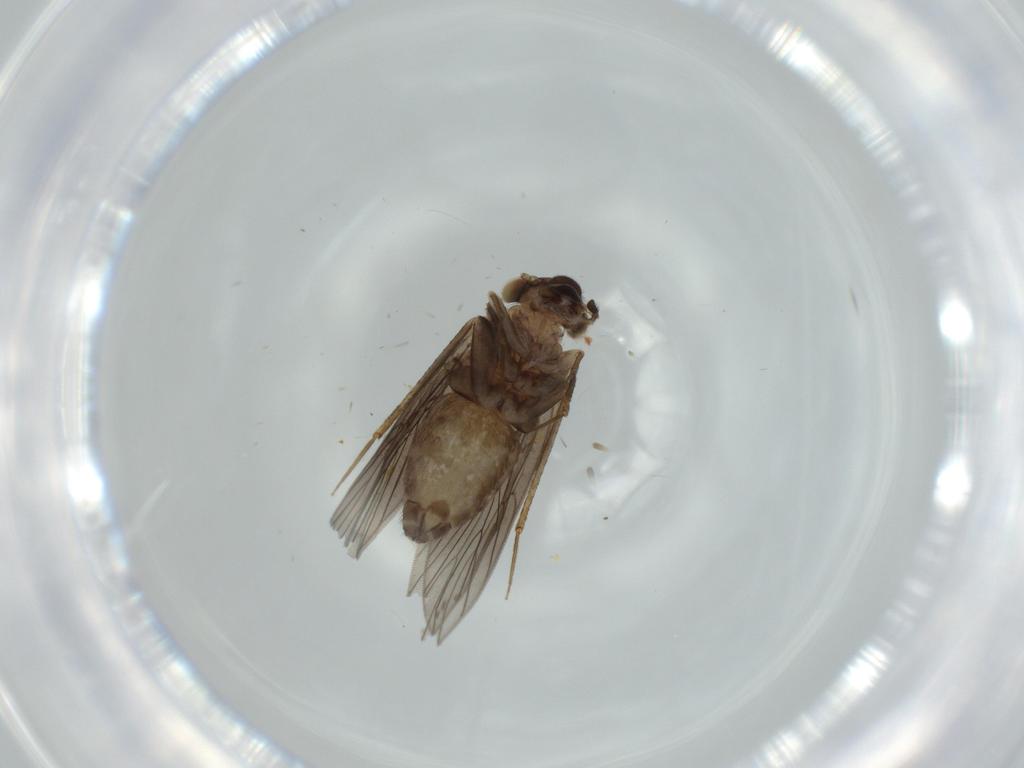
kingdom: Animalia
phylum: Arthropoda
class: Insecta
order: Psocodea
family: Lepidopsocidae
